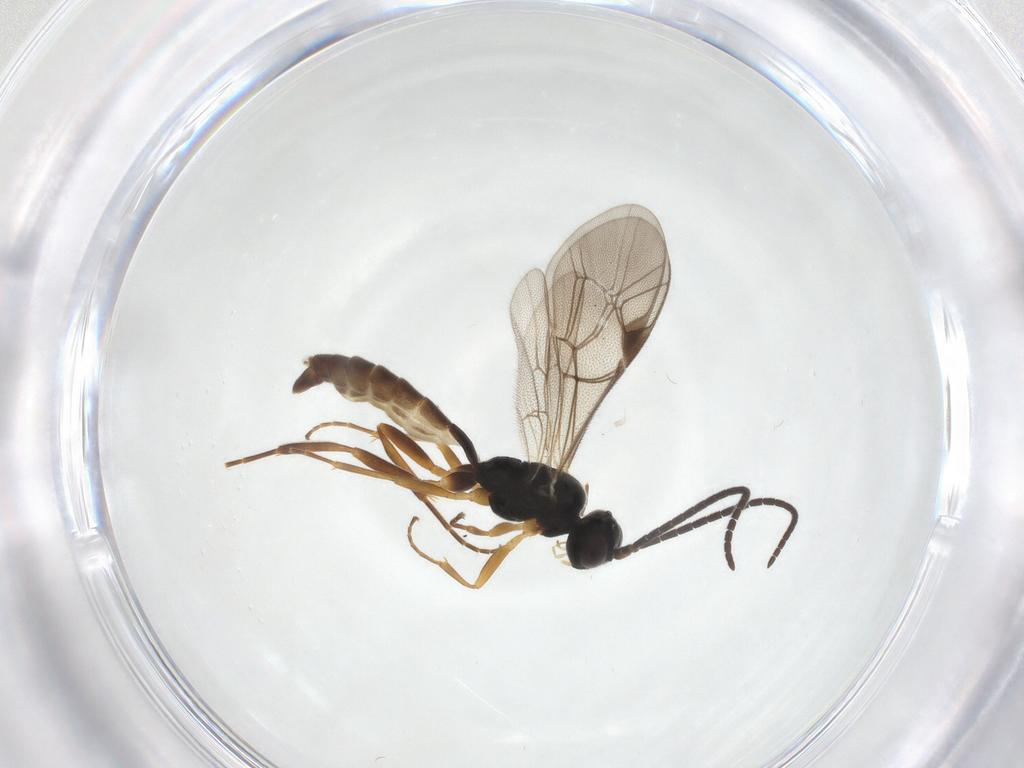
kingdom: Animalia
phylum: Arthropoda
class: Insecta
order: Hymenoptera
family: Ichneumonidae
